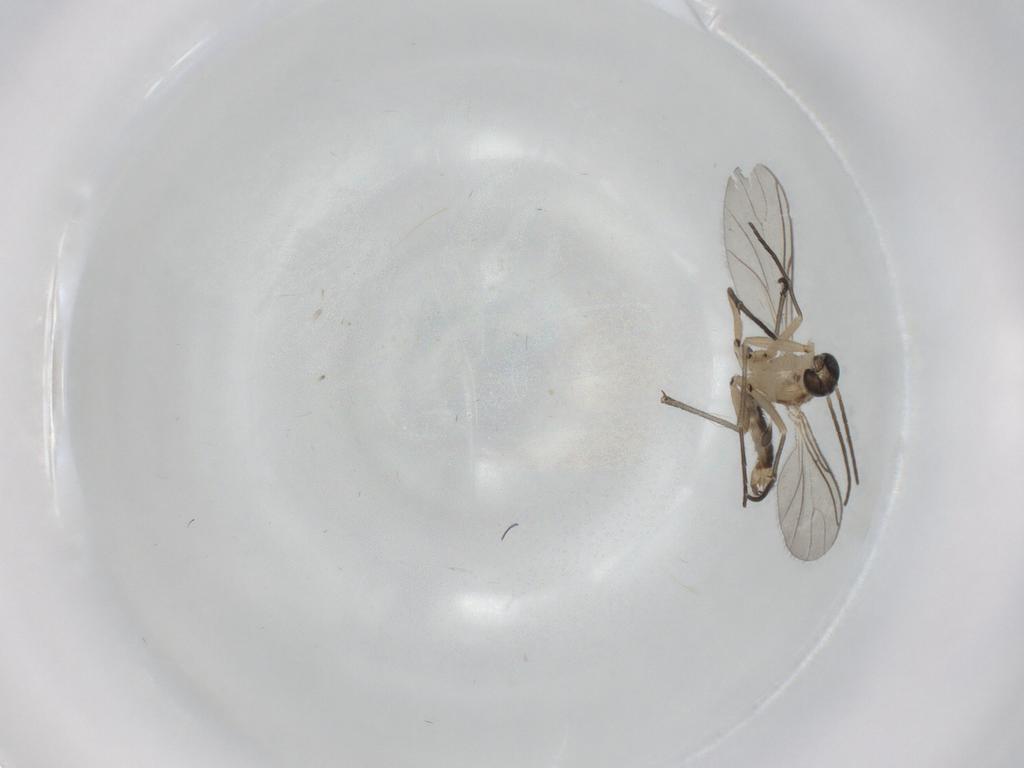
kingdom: Animalia
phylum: Arthropoda
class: Insecta
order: Diptera
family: Sciaridae
